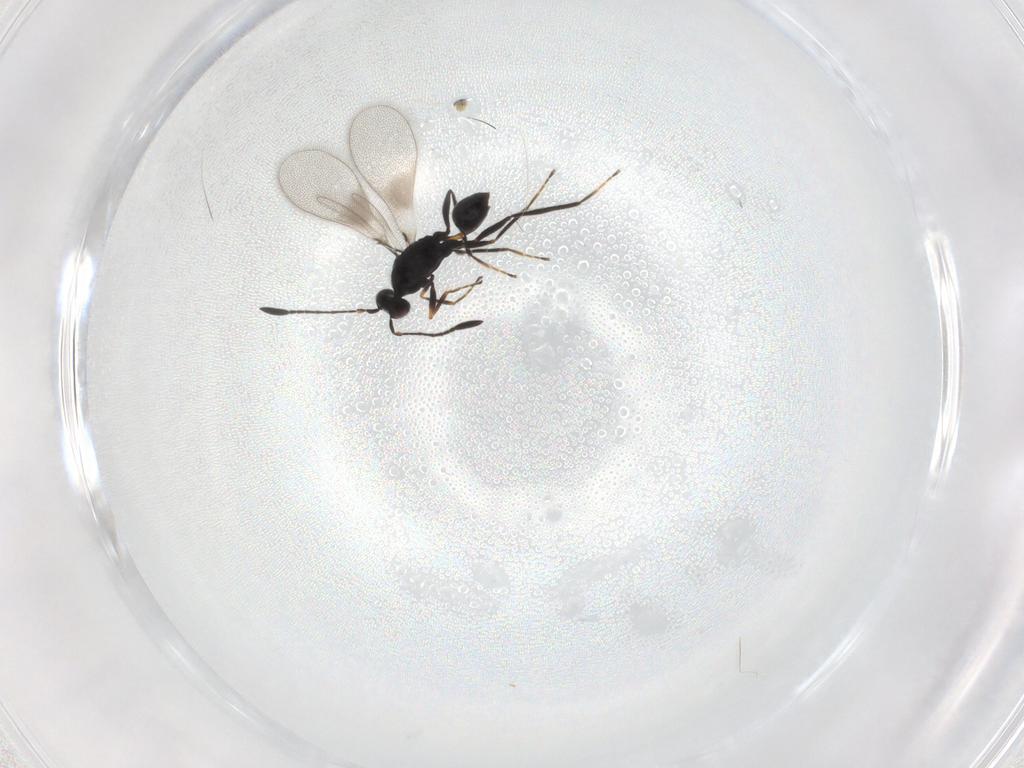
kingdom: Animalia
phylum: Arthropoda
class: Insecta
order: Hymenoptera
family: Mymaridae
